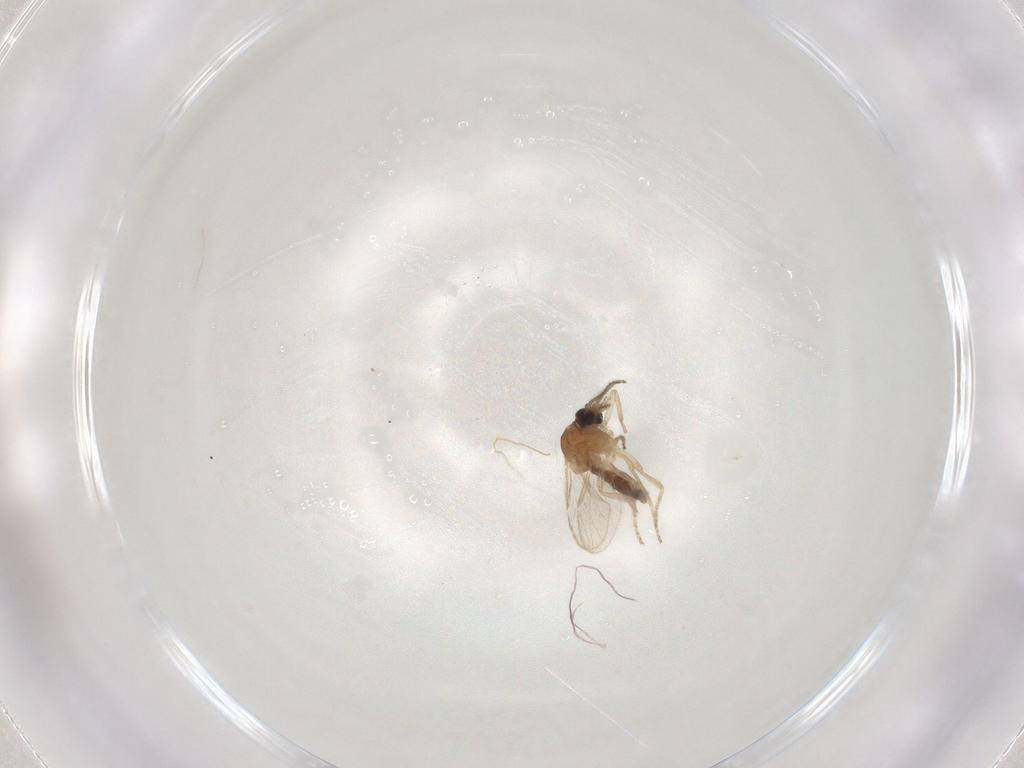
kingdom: Animalia
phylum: Arthropoda
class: Insecta
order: Diptera
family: Ceratopogonidae
